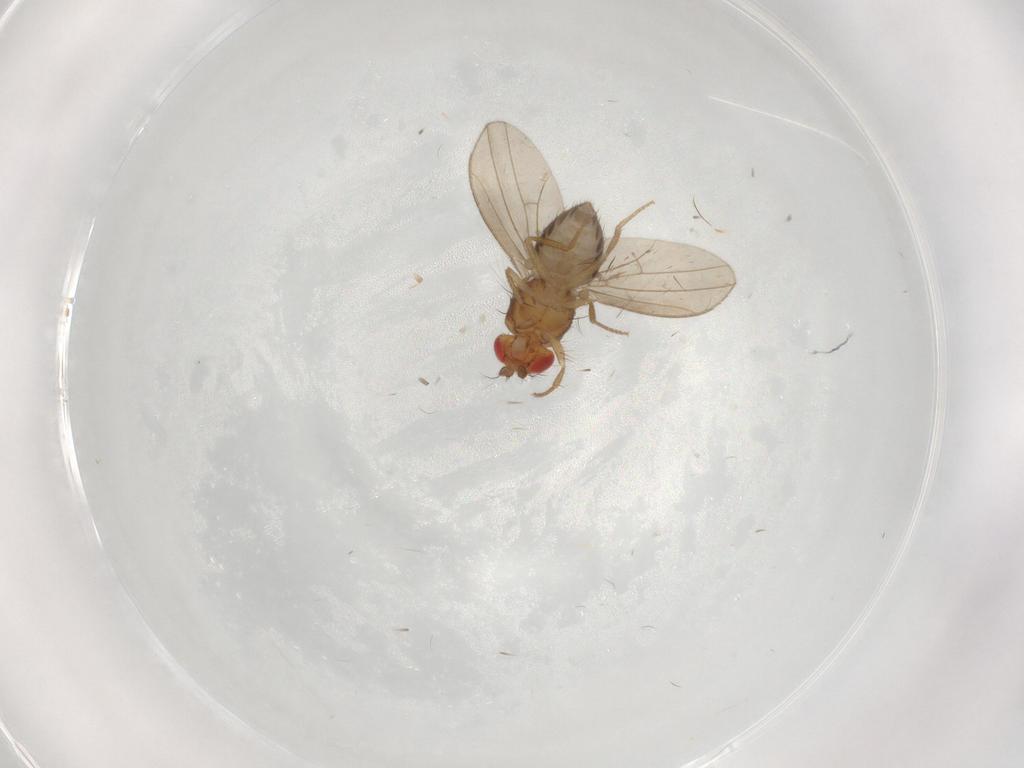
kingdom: Animalia
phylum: Arthropoda
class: Insecta
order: Diptera
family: Drosophilidae
